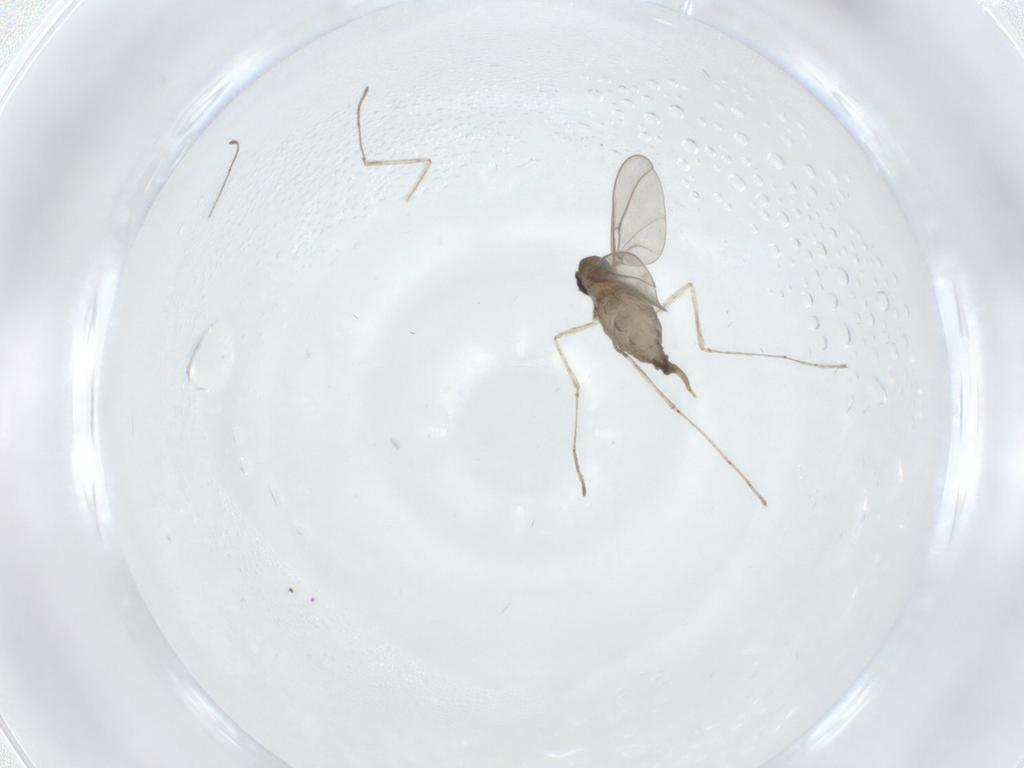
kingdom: Animalia
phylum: Arthropoda
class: Insecta
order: Diptera
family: Cecidomyiidae
